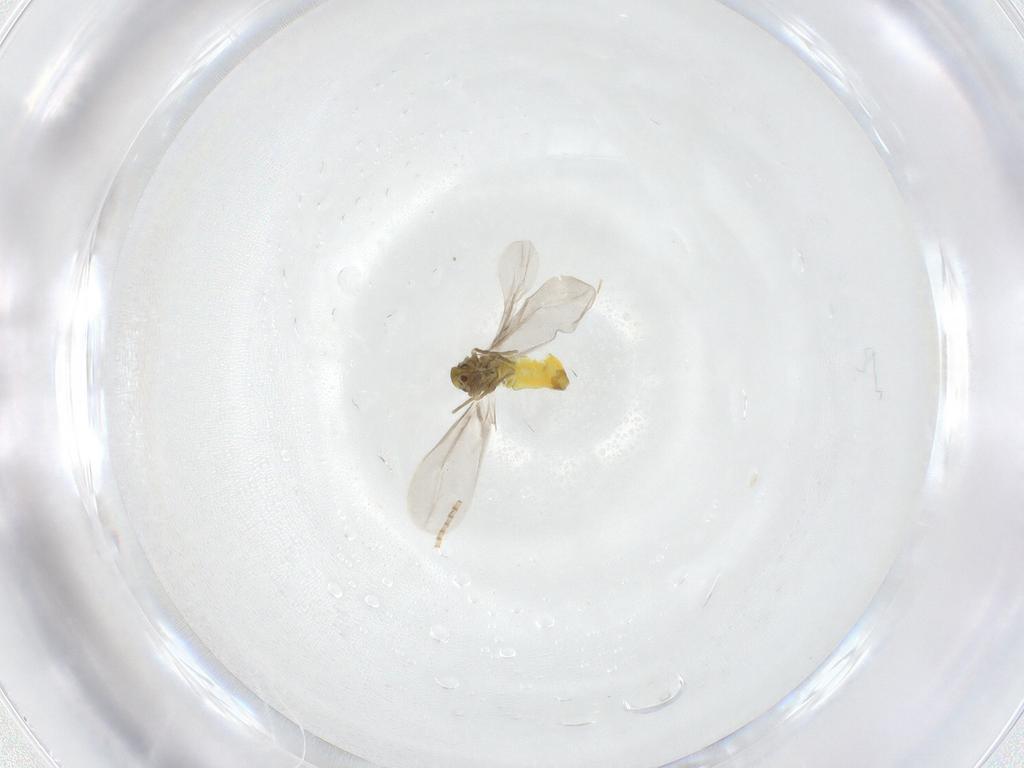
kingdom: Animalia
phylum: Arthropoda
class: Insecta
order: Hemiptera
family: Aleyrodidae
